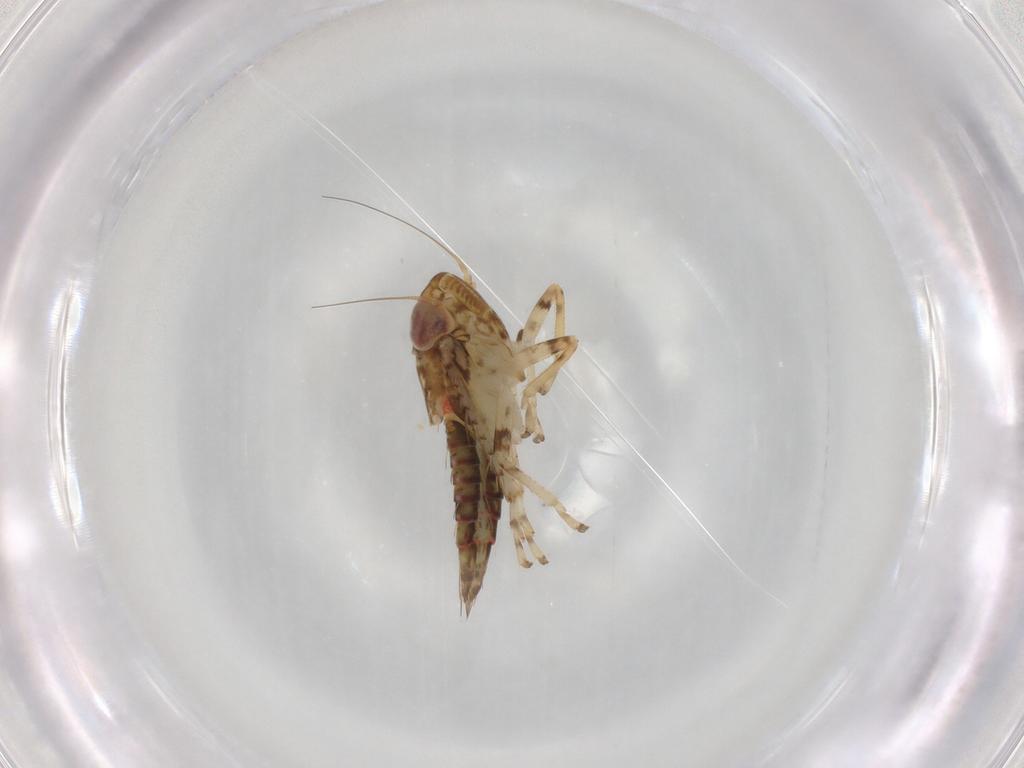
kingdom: Animalia
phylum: Arthropoda
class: Insecta
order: Hemiptera
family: Cicadellidae
